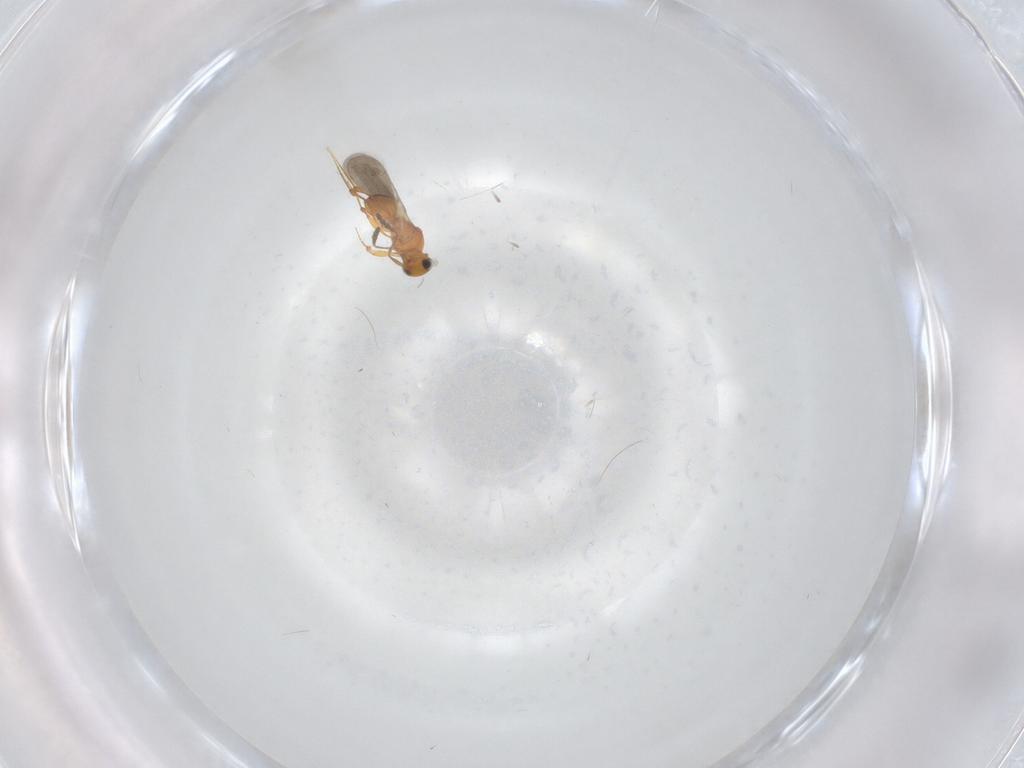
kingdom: Animalia
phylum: Arthropoda
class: Insecta
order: Hymenoptera
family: Platygastridae
